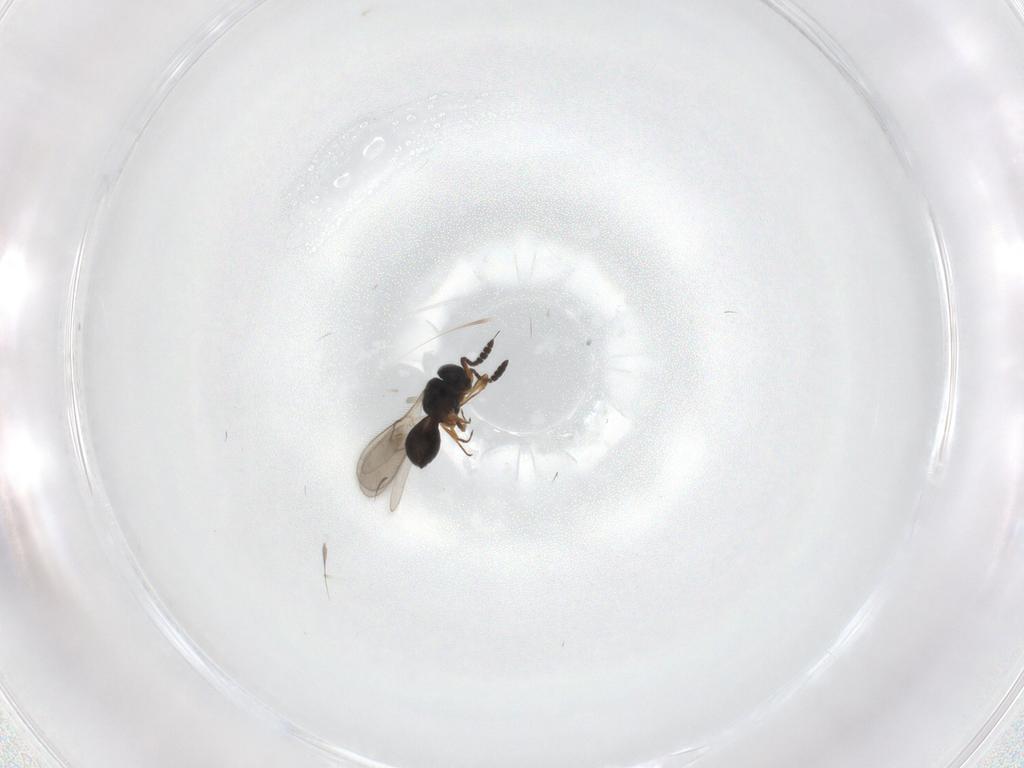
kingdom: Animalia
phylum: Arthropoda
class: Insecta
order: Hymenoptera
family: Scelionidae
